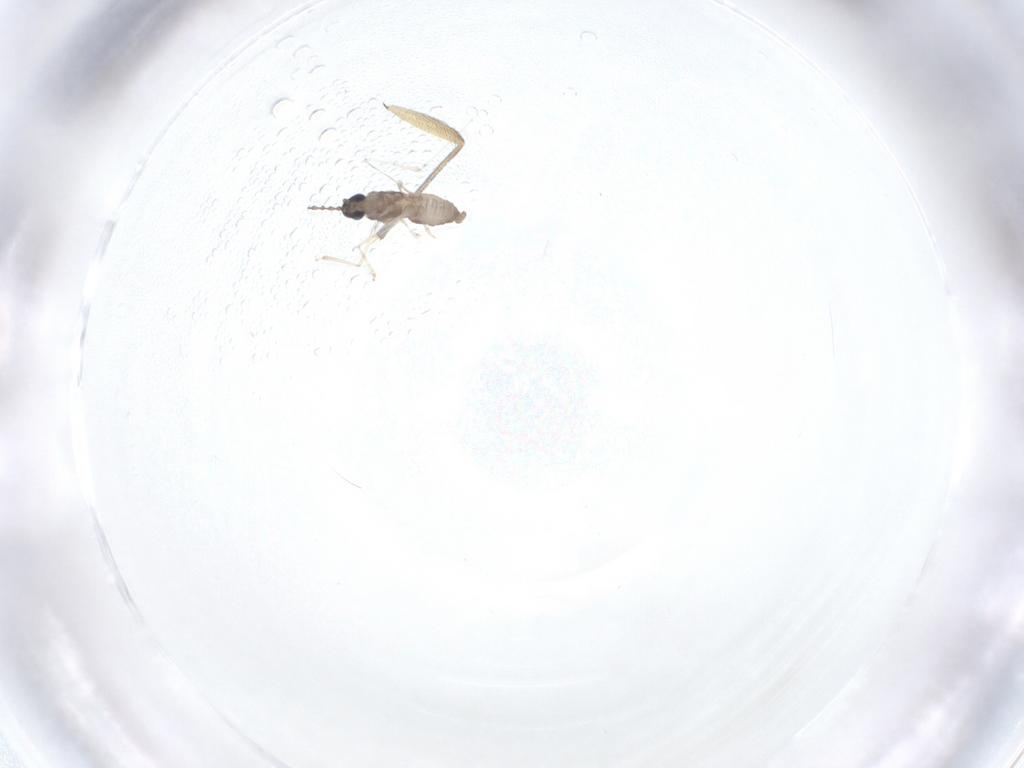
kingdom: Animalia
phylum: Arthropoda
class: Insecta
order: Diptera
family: Cecidomyiidae
